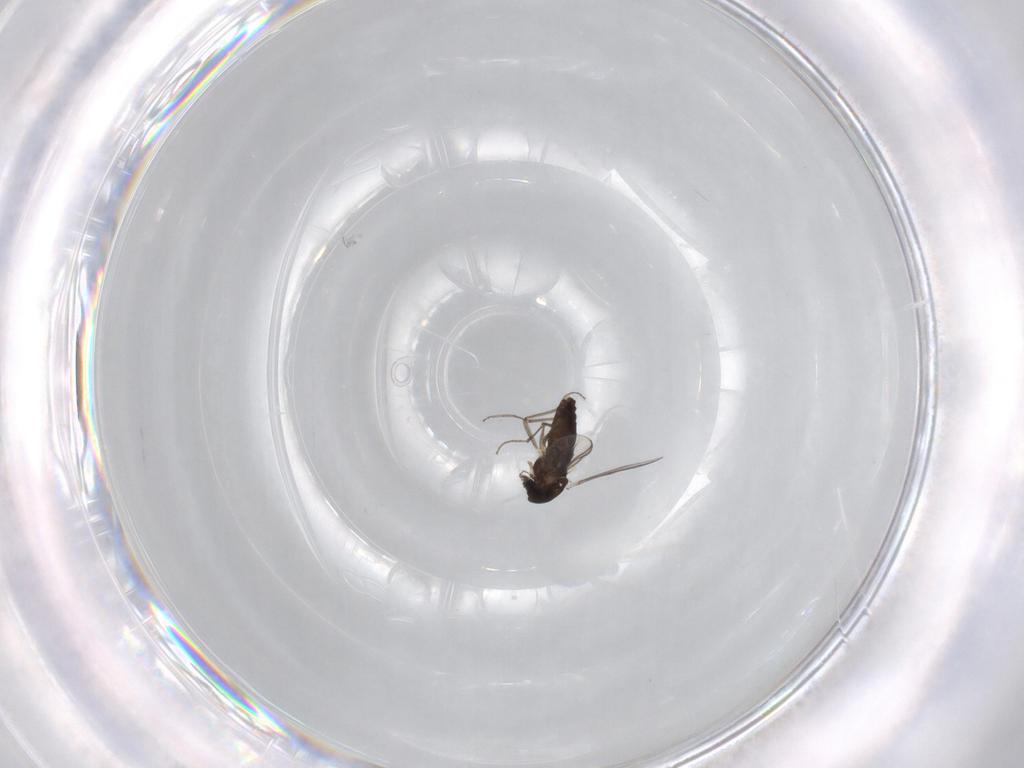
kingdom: Animalia
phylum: Arthropoda
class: Insecta
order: Diptera
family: Chironomidae
